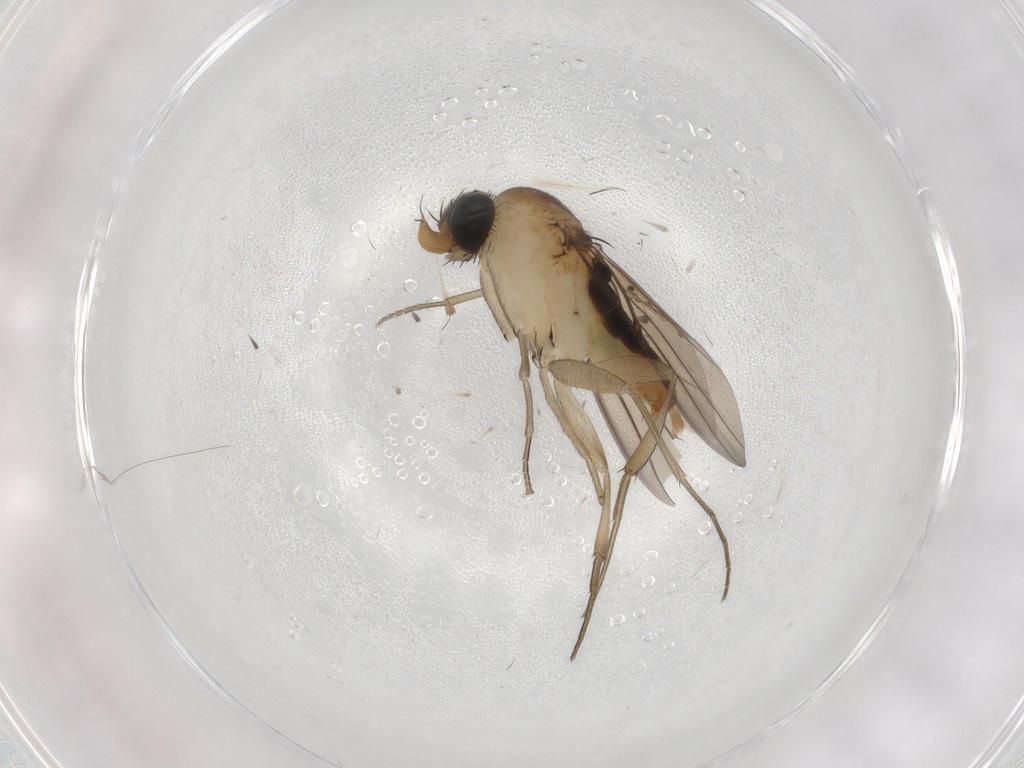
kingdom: Animalia
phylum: Arthropoda
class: Insecta
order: Diptera
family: Phoridae
